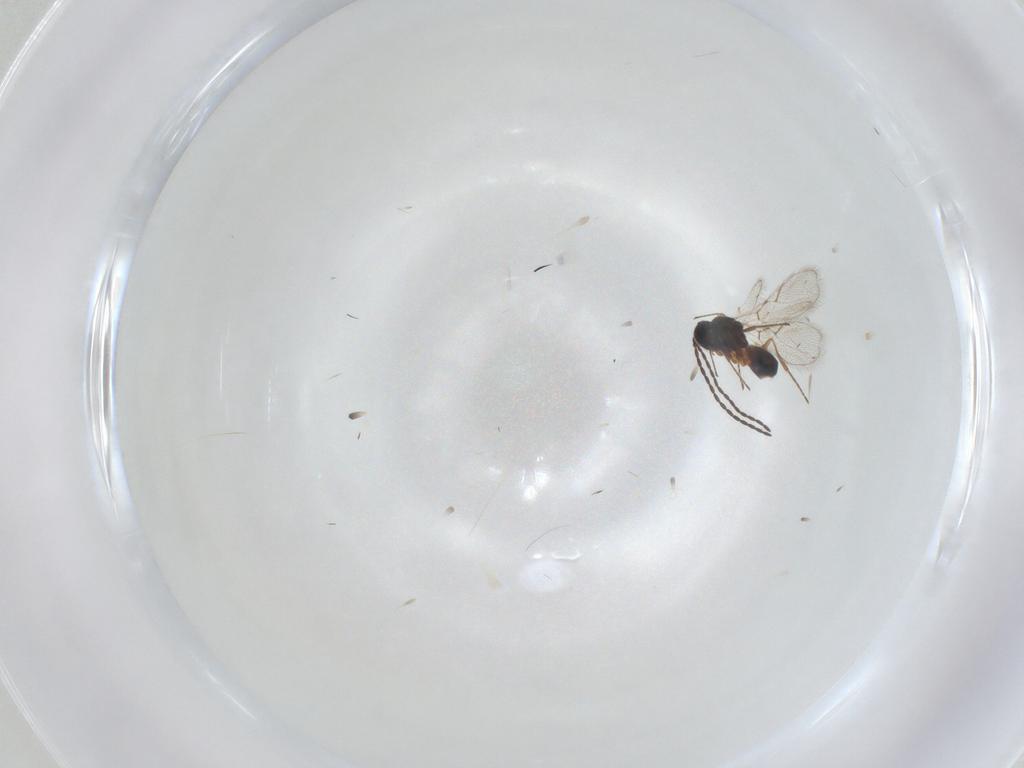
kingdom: Animalia
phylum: Arthropoda
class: Insecta
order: Hymenoptera
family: Figitidae
